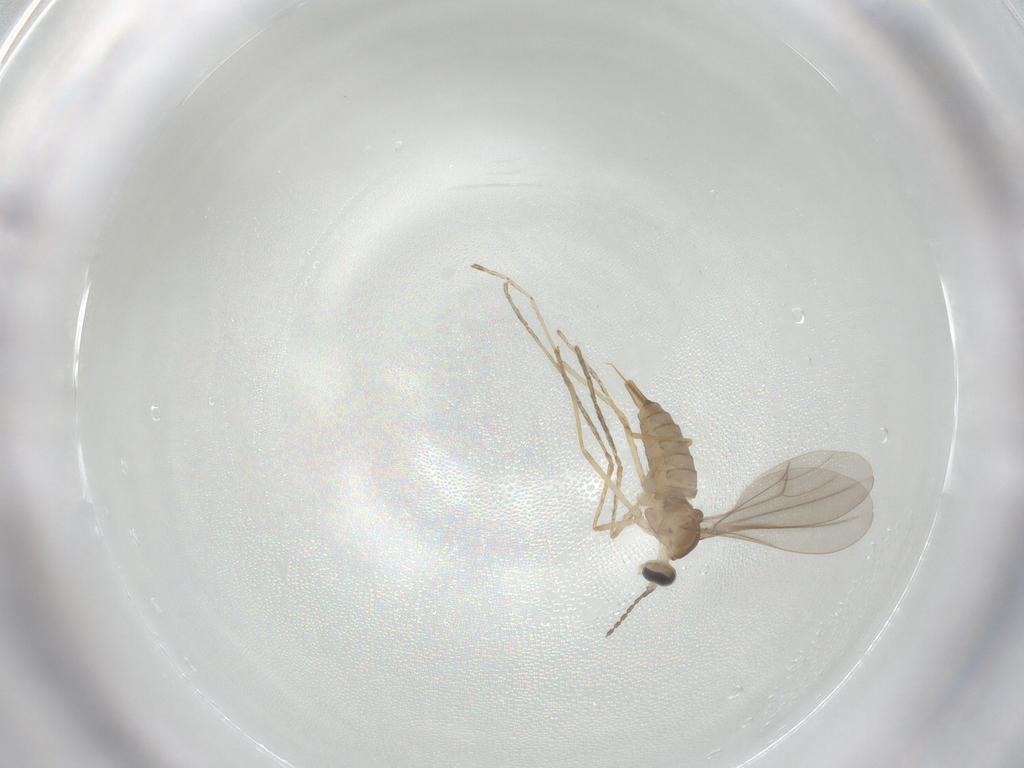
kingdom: Animalia
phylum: Arthropoda
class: Insecta
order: Diptera
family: Cecidomyiidae
